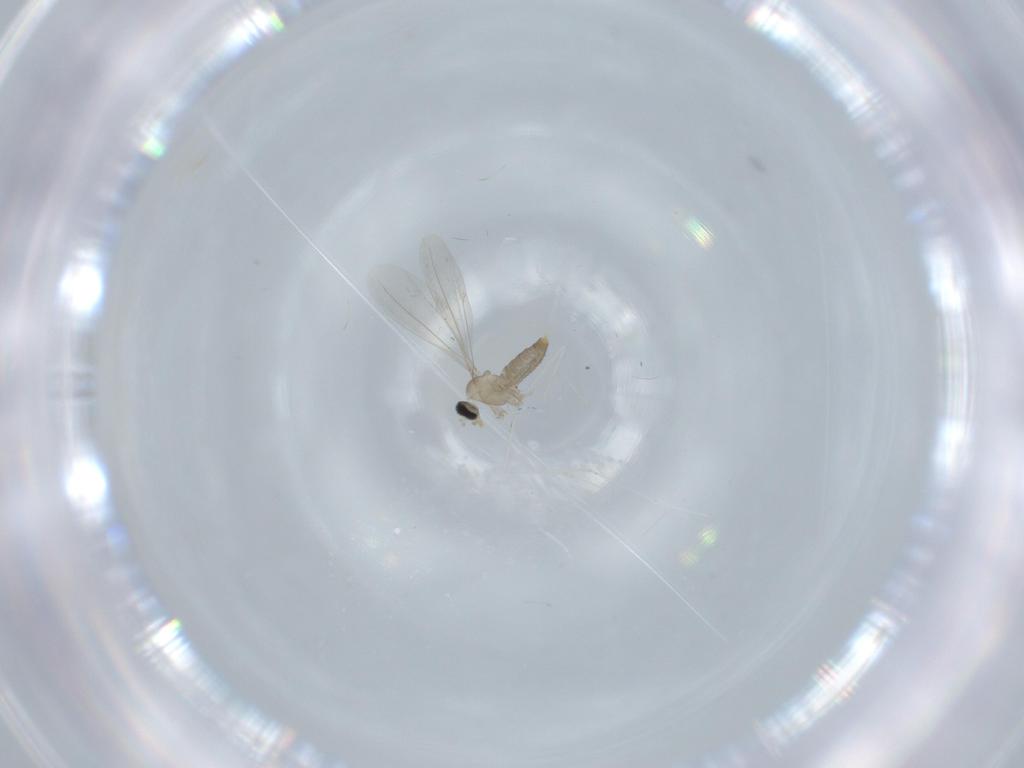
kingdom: Animalia
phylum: Arthropoda
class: Insecta
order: Diptera
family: Cecidomyiidae
